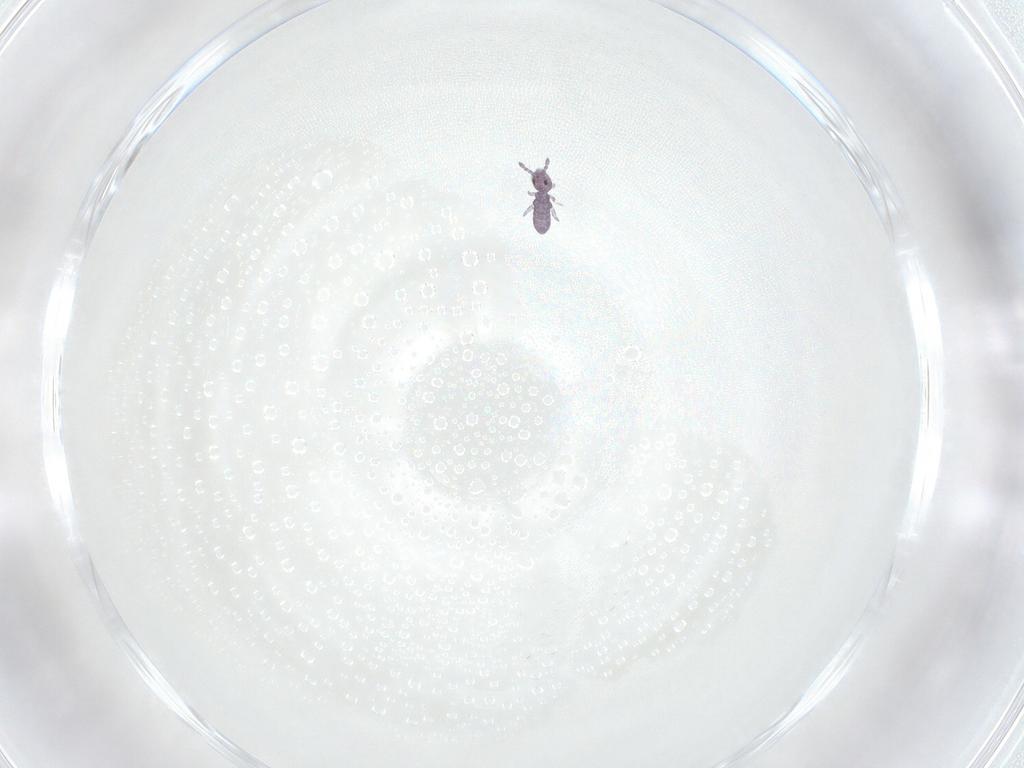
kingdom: Animalia
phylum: Arthropoda
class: Collembola
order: Entomobryomorpha
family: Isotomidae
